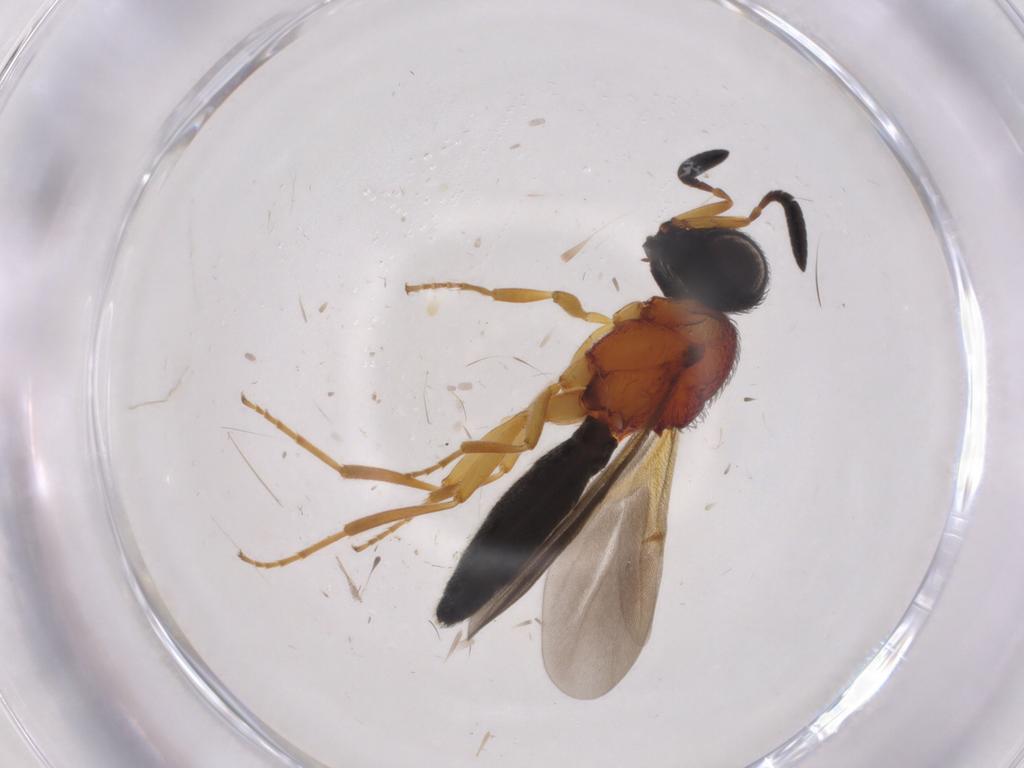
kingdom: Animalia
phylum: Arthropoda
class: Insecta
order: Hymenoptera
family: Scelionidae
